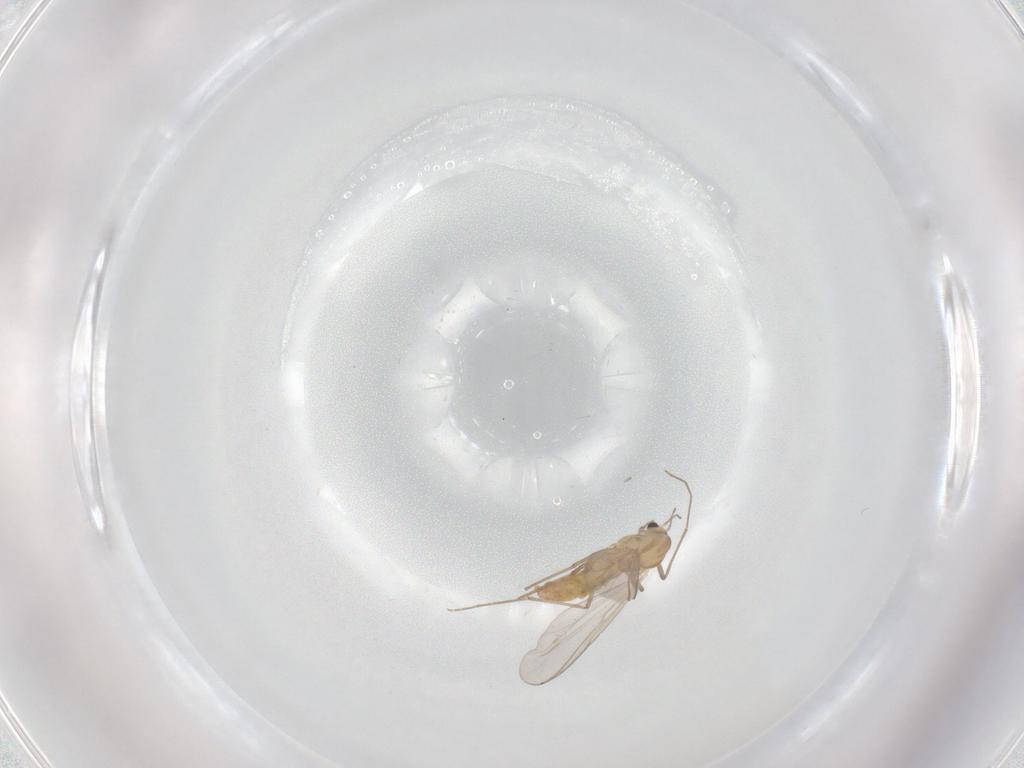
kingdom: Animalia
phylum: Arthropoda
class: Insecta
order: Diptera
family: Chironomidae
